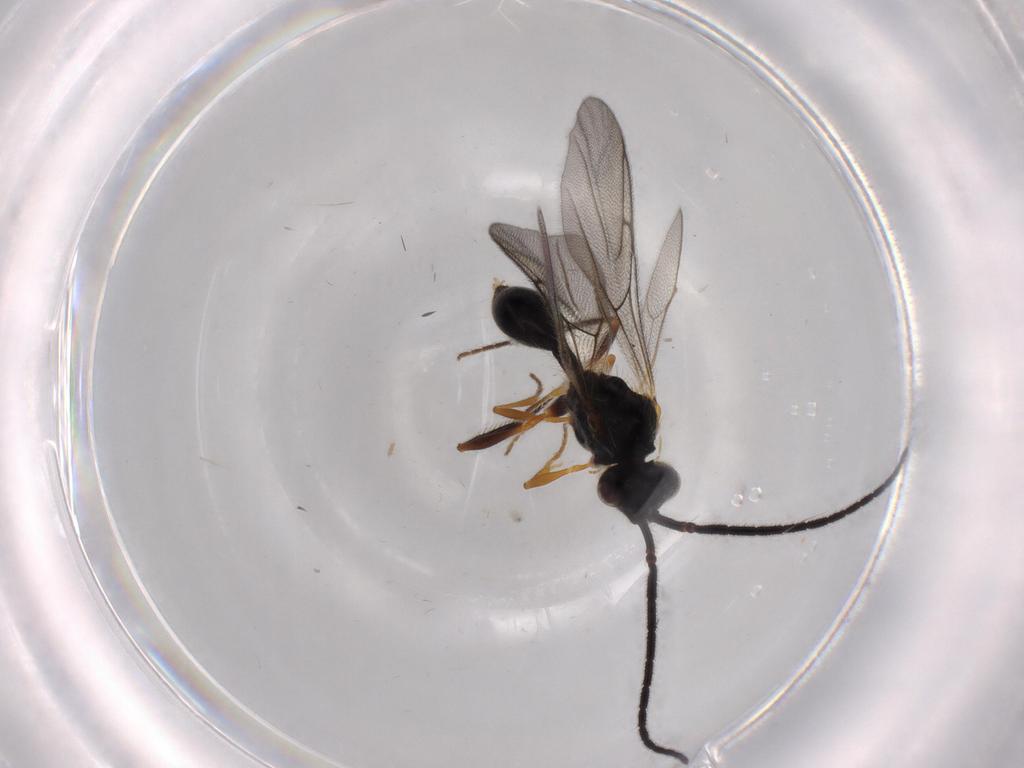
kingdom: Animalia
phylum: Arthropoda
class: Insecta
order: Hymenoptera
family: Diapriidae
